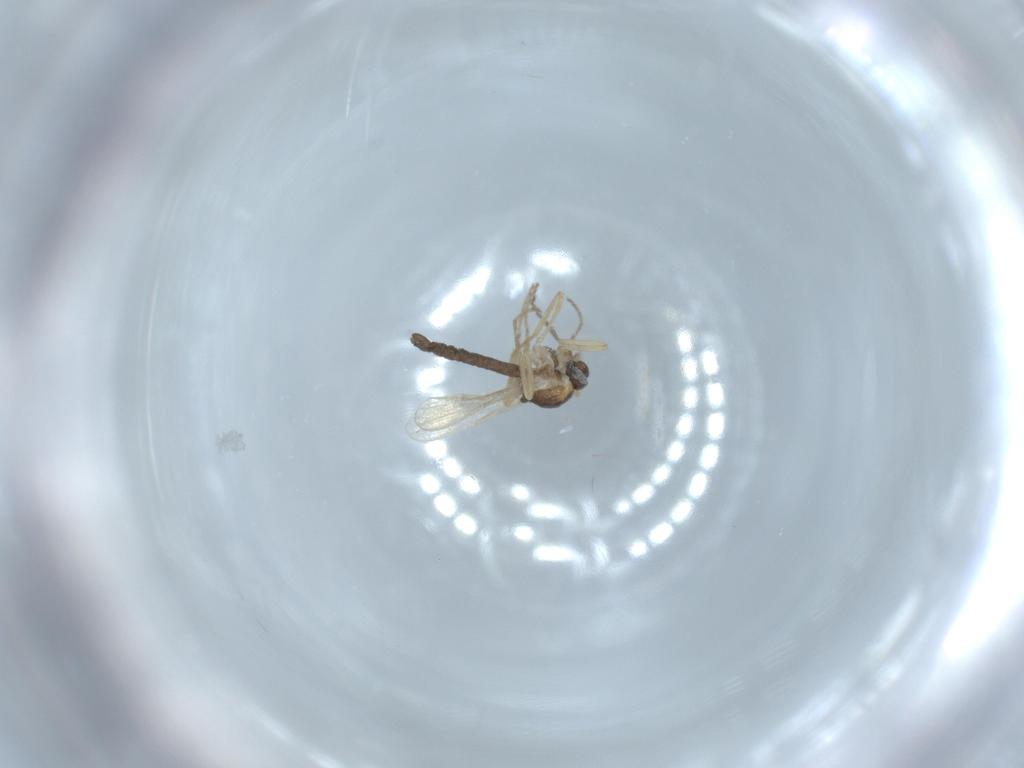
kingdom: Animalia
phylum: Arthropoda
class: Insecta
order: Diptera
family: Ceratopogonidae
